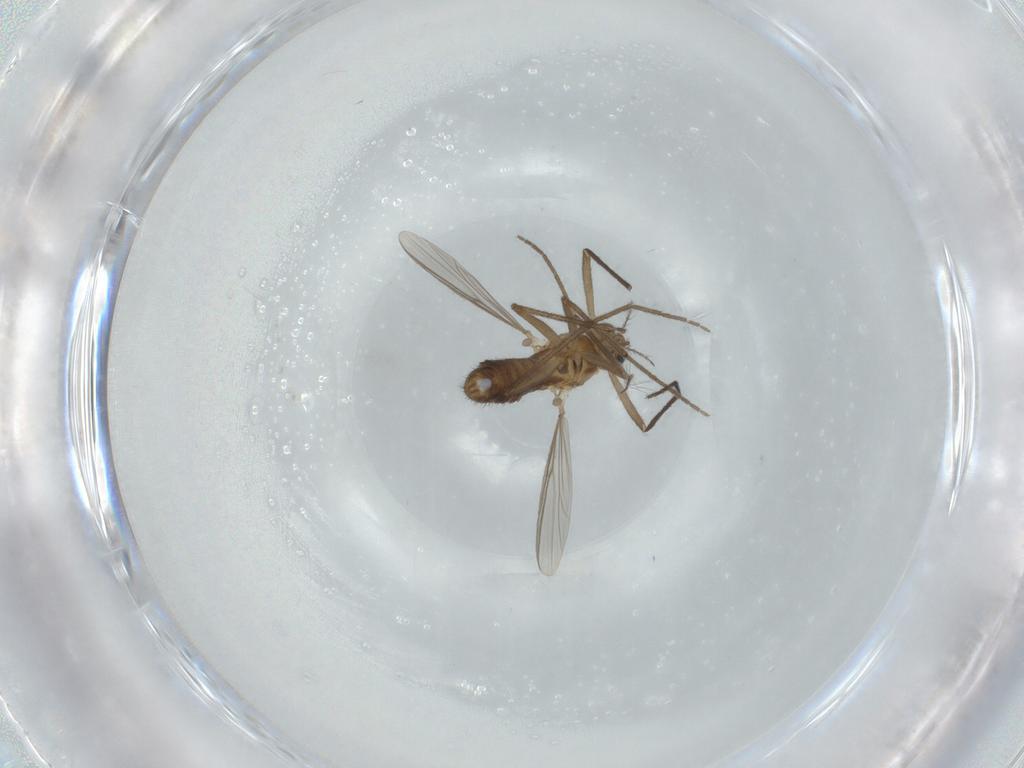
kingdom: Animalia
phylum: Arthropoda
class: Insecta
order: Diptera
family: Chironomidae
